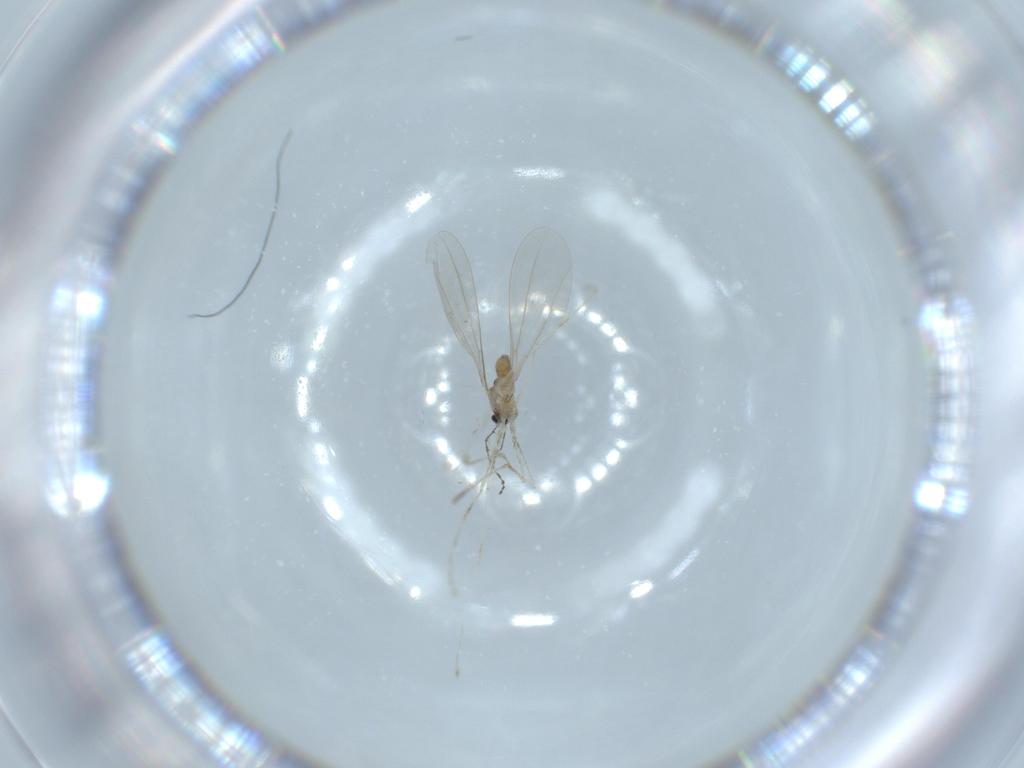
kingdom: Animalia
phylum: Arthropoda
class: Insecta
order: Diptera
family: Cecidomyiidae
